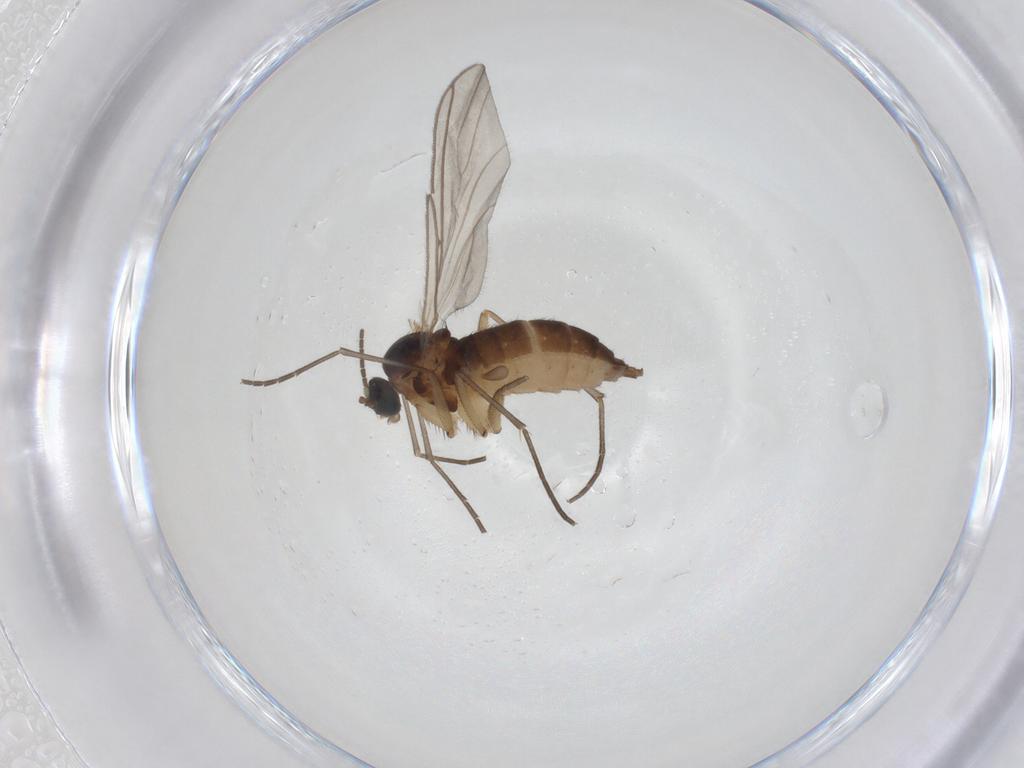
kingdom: Animalia
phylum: Arthropoda
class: Insecta
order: Diptera
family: Sciaridae
